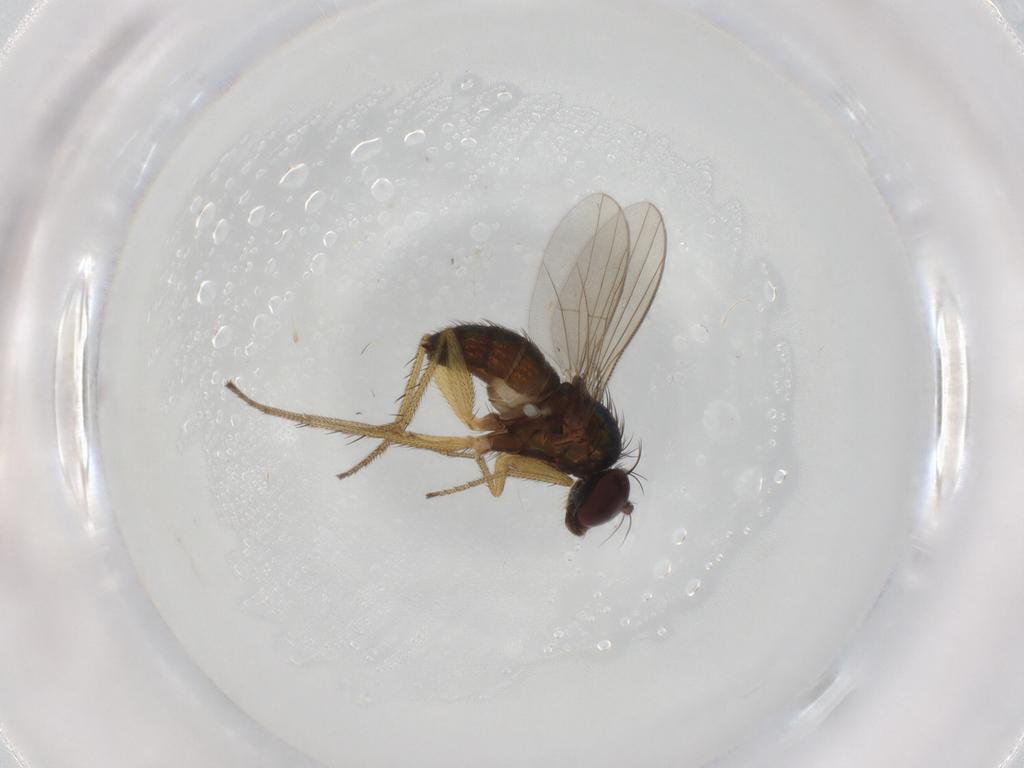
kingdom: Animalia
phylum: Arthropoda
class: Insecta
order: Diptera
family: Dolichopodidae
